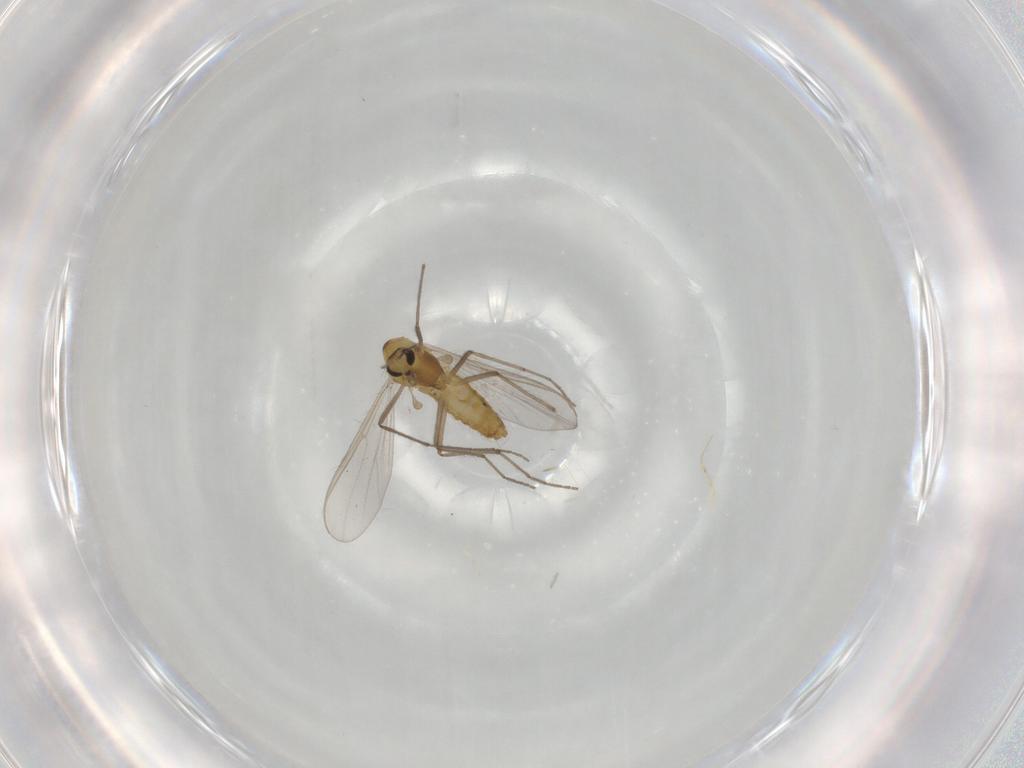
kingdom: Animalia
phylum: Arthropoda
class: Insecta
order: Diptera
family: Chironomidae
